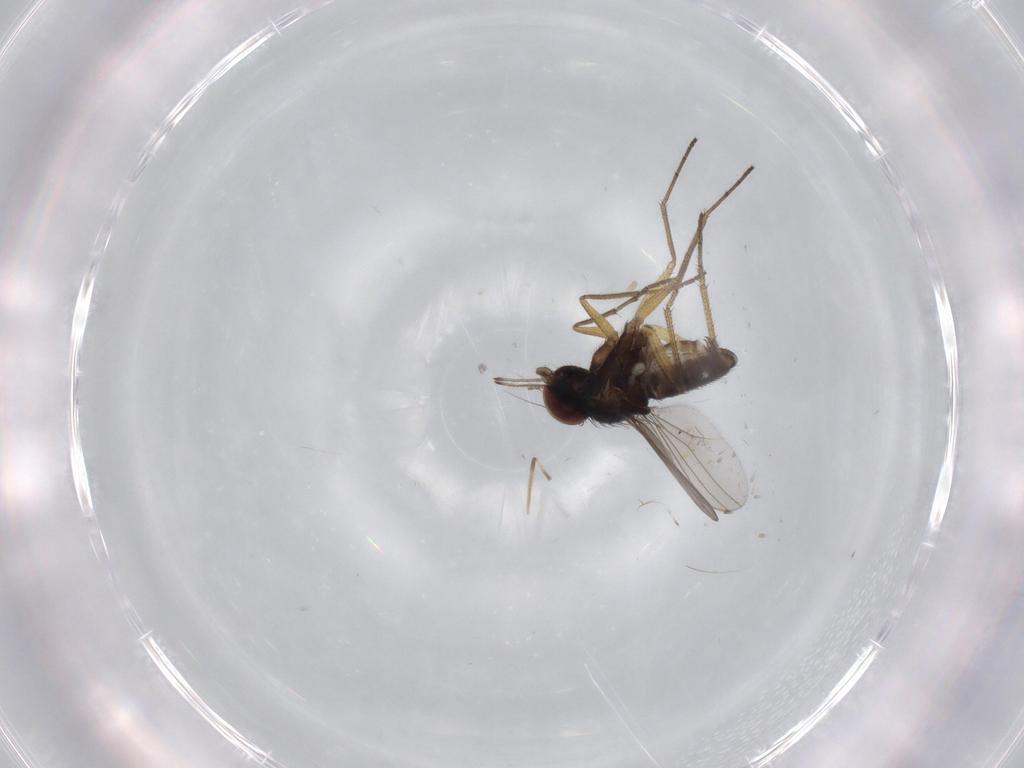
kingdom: Animalia
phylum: Arthropoda
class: Insecta
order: Diptera
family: Dolichopodidae
